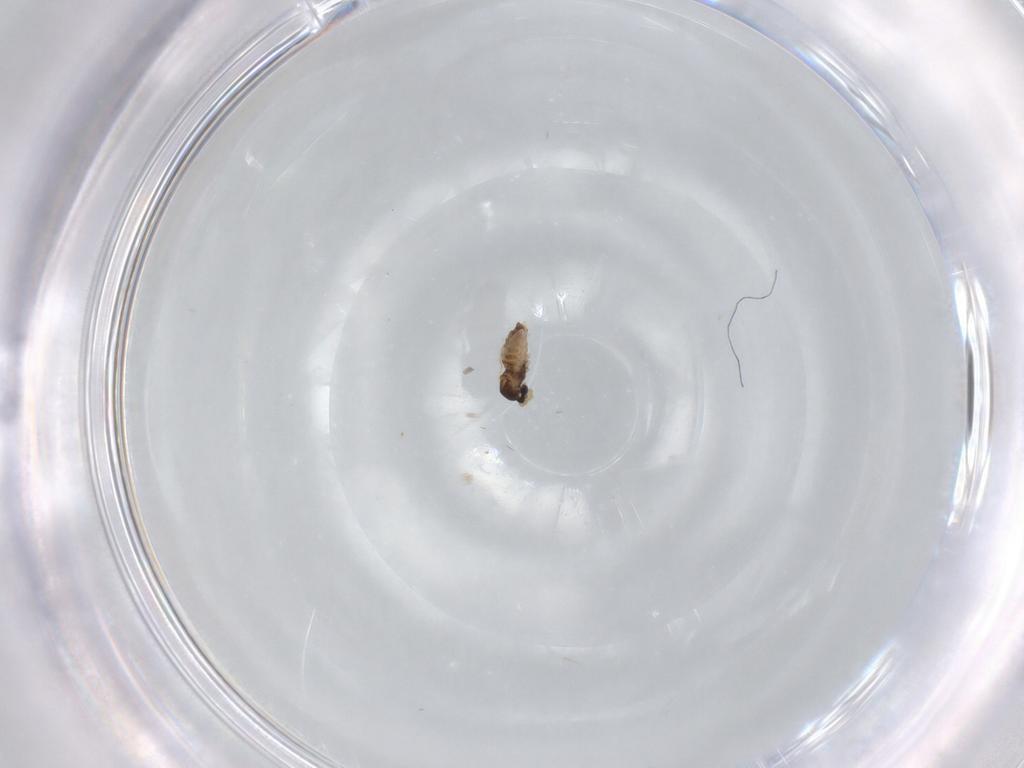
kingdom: Animalia
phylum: Arthropoda
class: Insecta
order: Diptera
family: Cecidomyiidae
